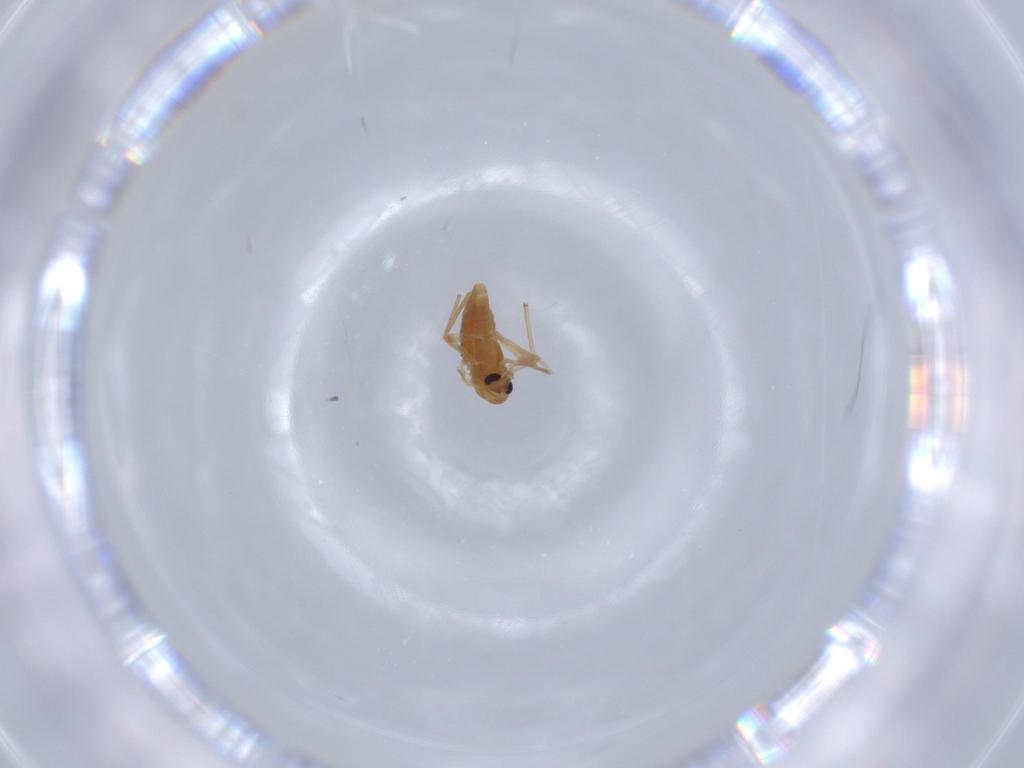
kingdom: Animalia
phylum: Arthropoda
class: Insecta
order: Diptera
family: Chironomidae
